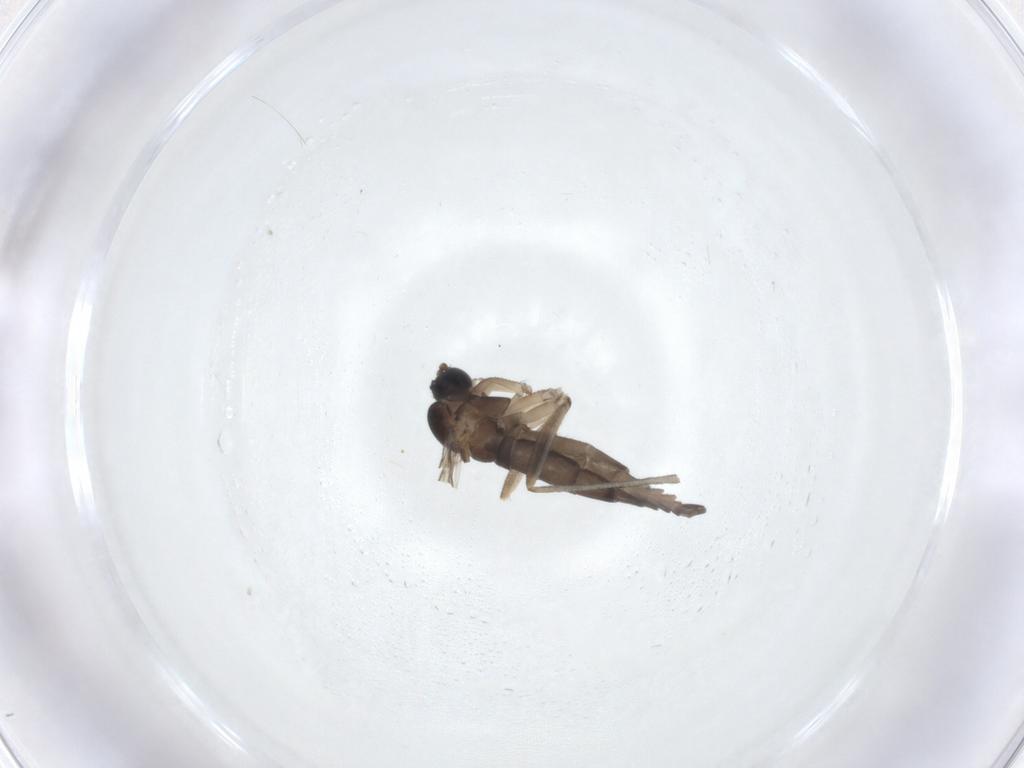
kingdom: Animalia
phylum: Arthropoda
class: Insecta
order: Diptera
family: Sciaridae
